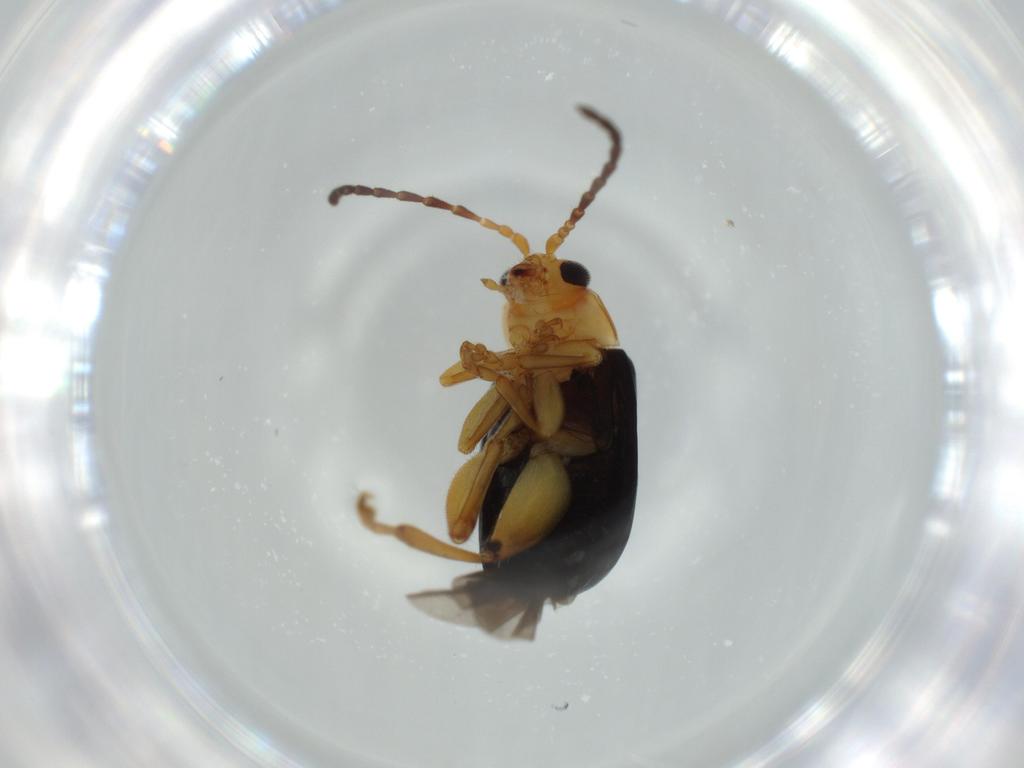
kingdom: Animalia
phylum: Arthropoda
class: Insecta
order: Coleoptera
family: Chrysomelidae
